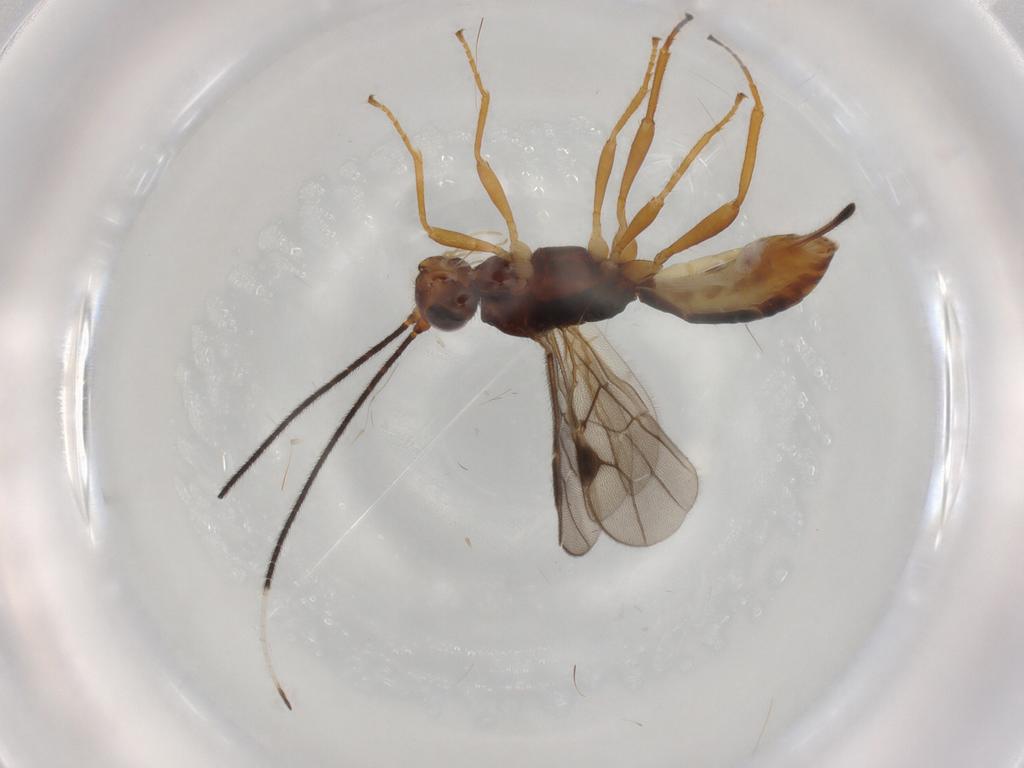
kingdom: Animalia
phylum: Arthropoda
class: Insecta
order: Hymenoptera
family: Braconidae
